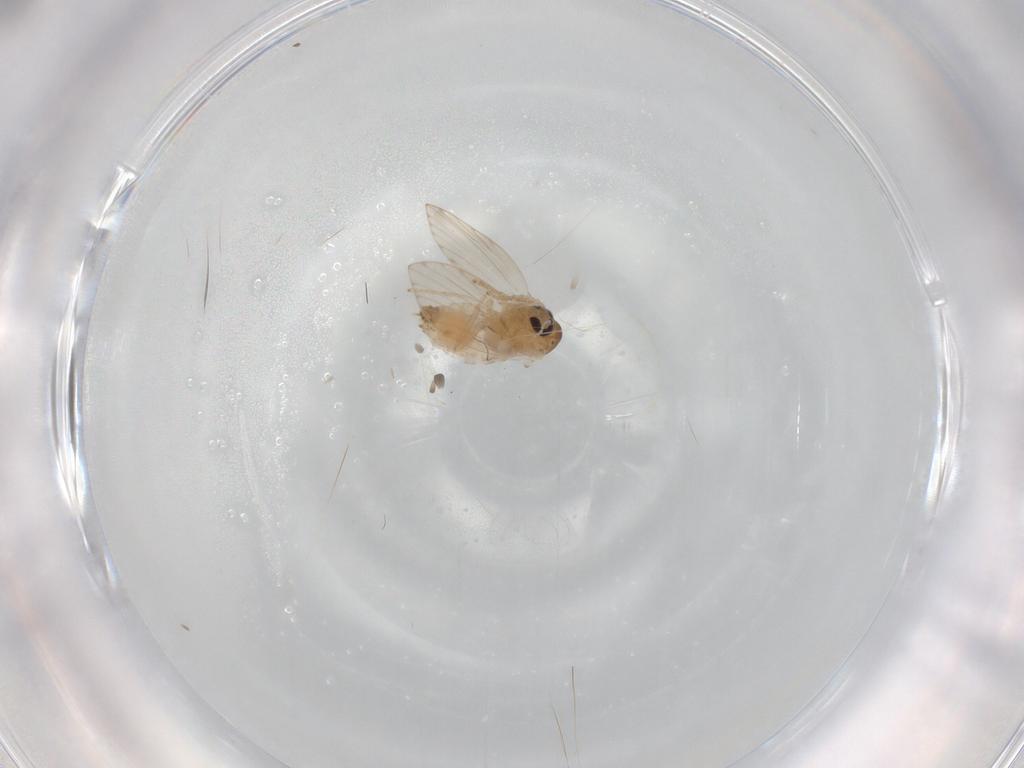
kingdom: Animalia
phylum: Arthropoda
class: Insecta
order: Diptera
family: Psychodidae
